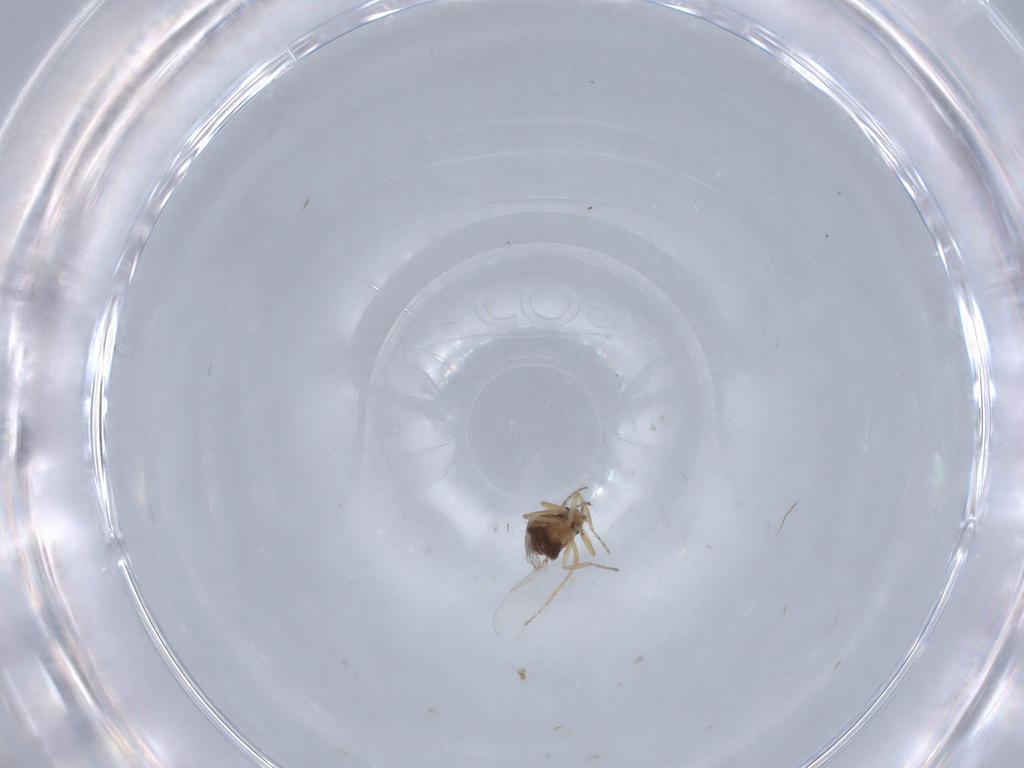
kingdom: Animalia
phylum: Arthropoda
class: Insecta
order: Diptera
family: Ceratopogonidae
